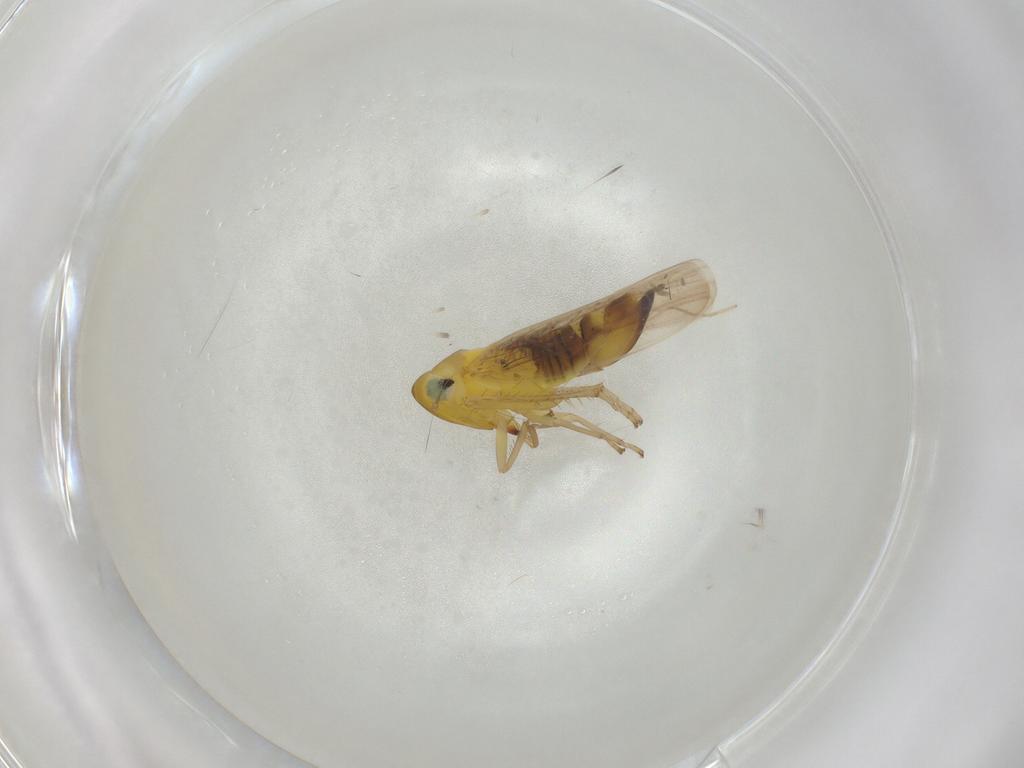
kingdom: Animalia
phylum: Arthropoda
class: Insecta
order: Hemiptera
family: Cicadellidae
